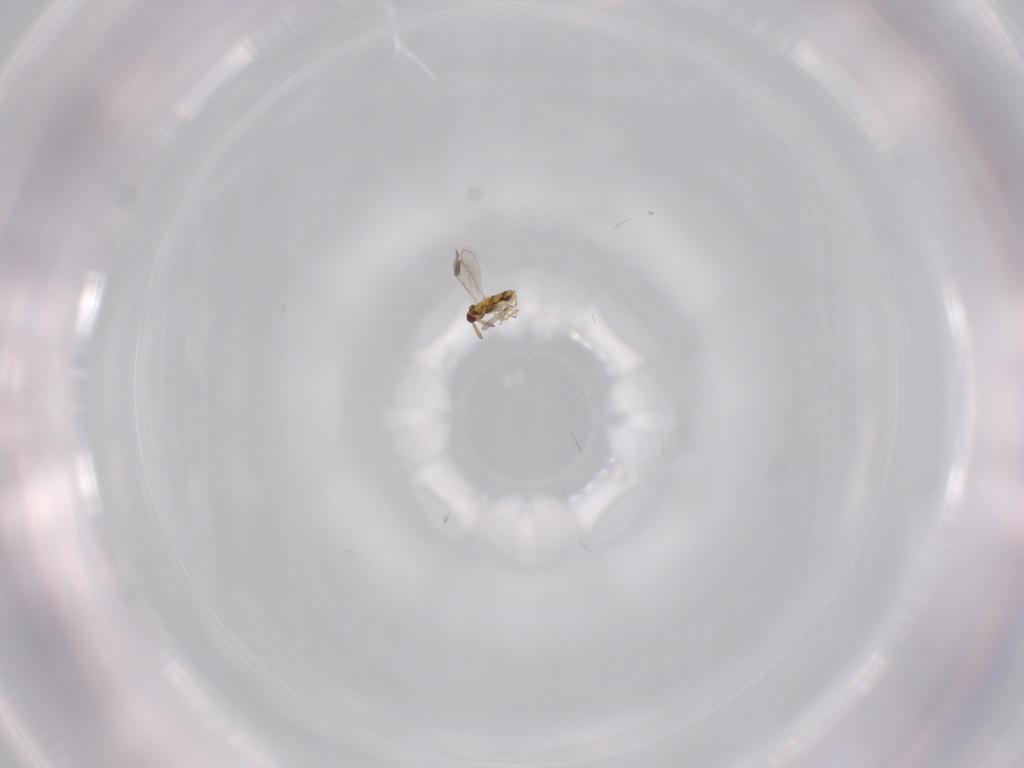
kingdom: Animalia
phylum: Arthropoda
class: Insecta
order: Hymenoptera
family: Aphelinidae
